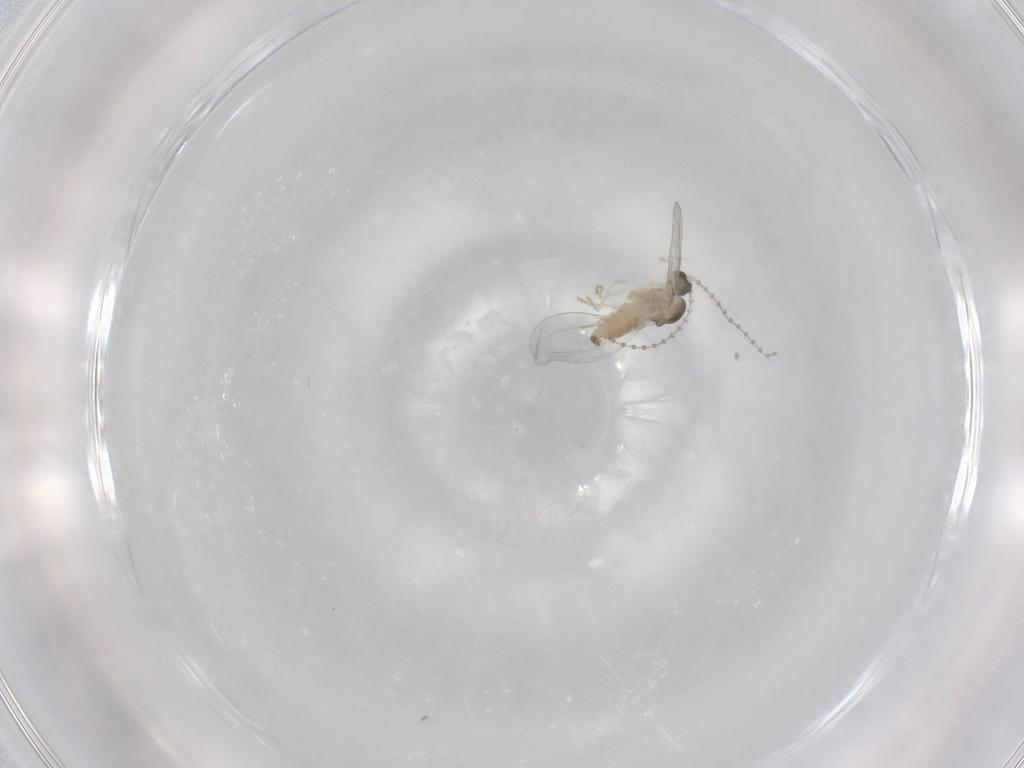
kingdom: Animalia
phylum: Arthropoda
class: Insecta
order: Diptera
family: Cecidomyiidae
